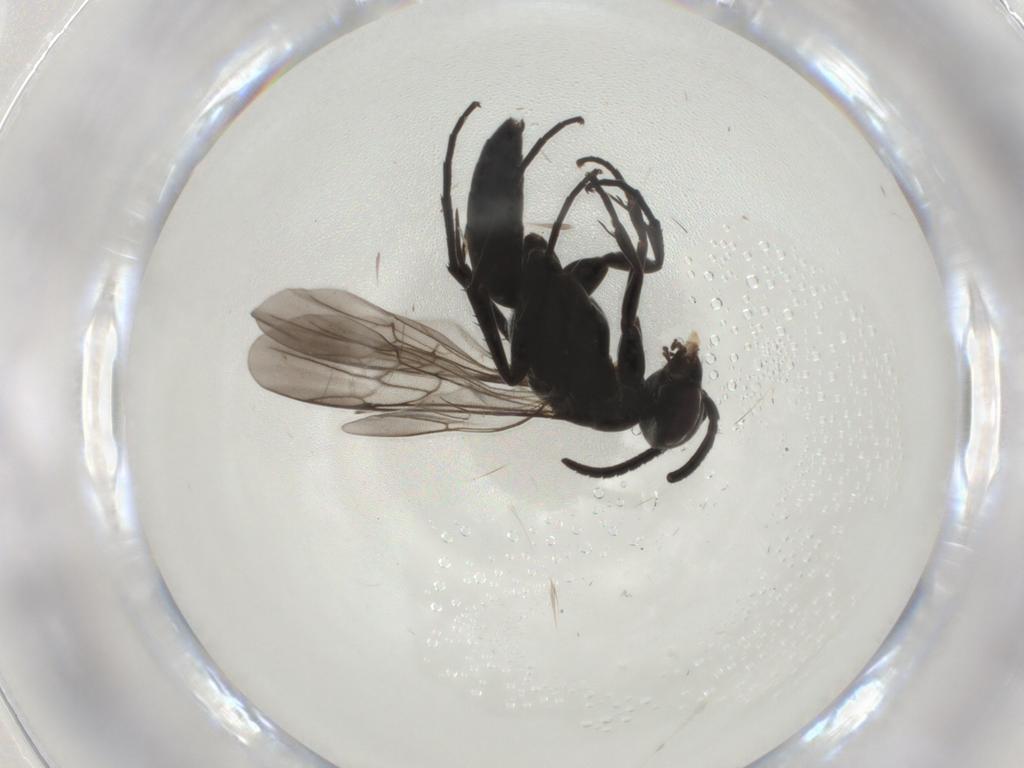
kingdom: Animalia
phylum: Arthropoda
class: Insecta
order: Hymenoptera
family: Pompilidae
